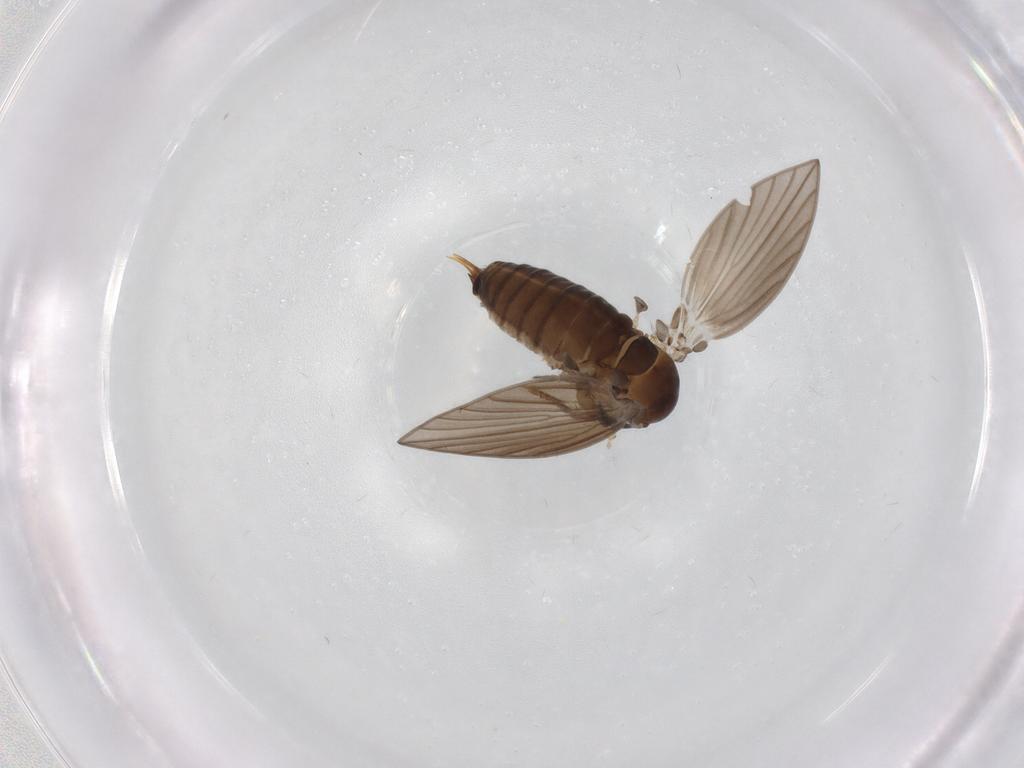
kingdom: Animalia
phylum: Arthropoda
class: Insecta
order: Diptera
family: Psychodidae
